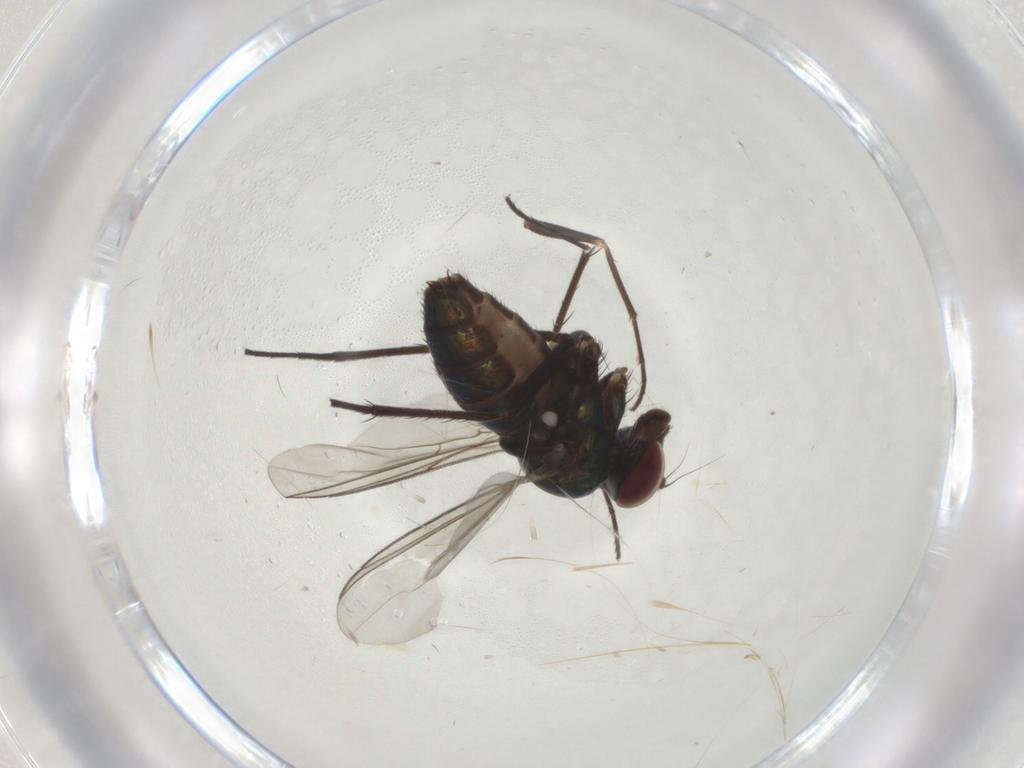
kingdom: Animalia
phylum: Arthropoda
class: Insecta
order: Diptera
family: Dolichopodidae
